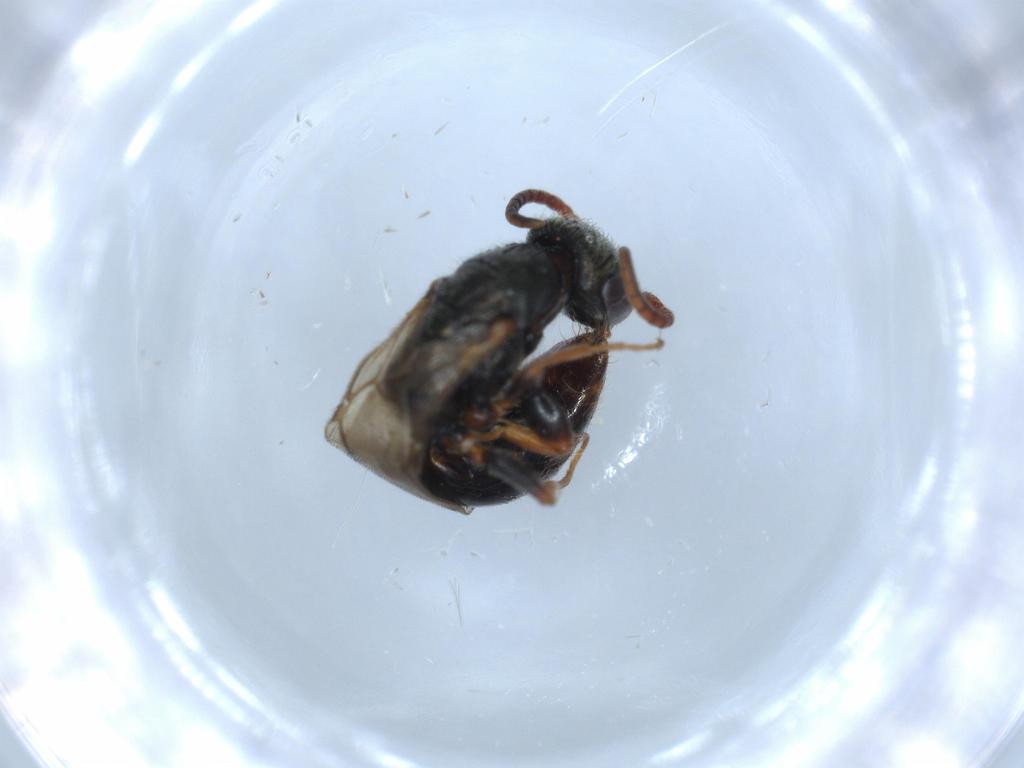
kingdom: Animalia
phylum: Arthropoda
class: Insecta
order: Hymenoptera
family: Bethylidae
